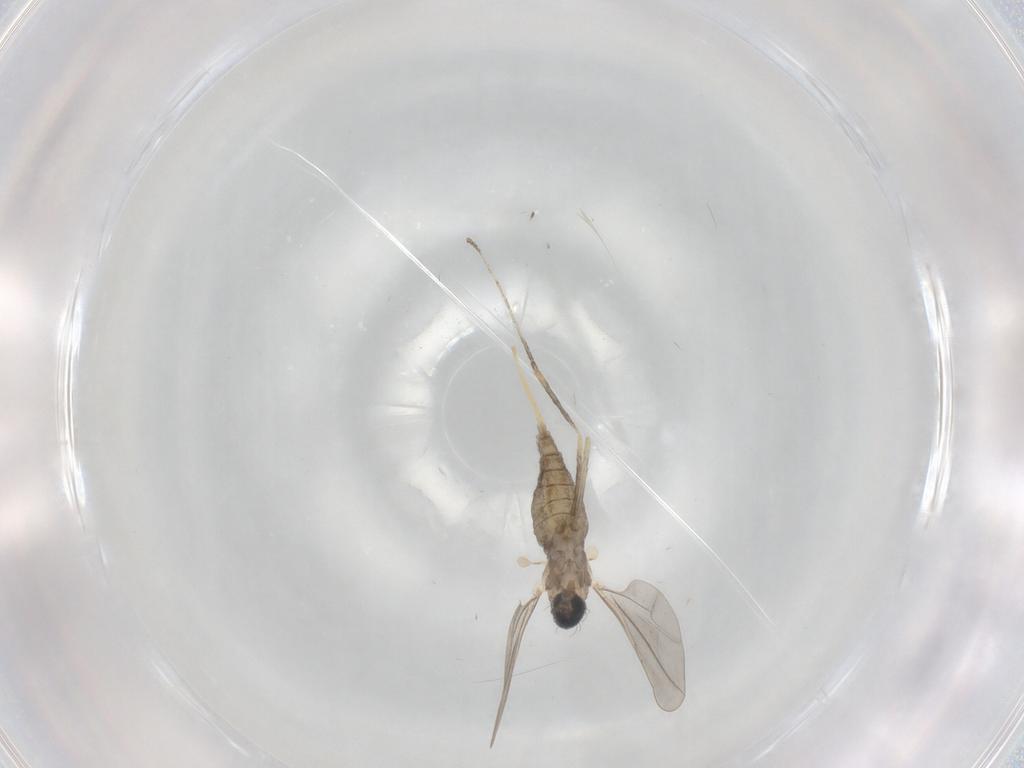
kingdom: Animalia
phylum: Arthropoda
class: Insecta
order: Diptera
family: Cecidomyiidae
